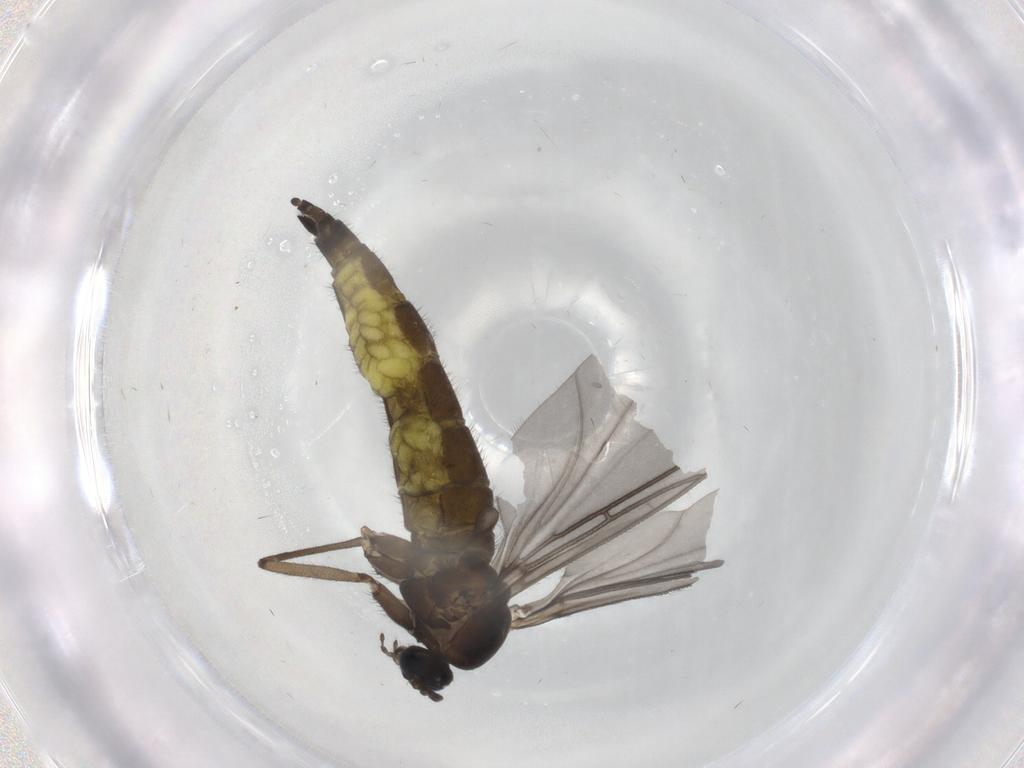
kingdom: Animalia
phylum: Arthropoda
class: Insecta
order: Diptera
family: Sciaridae
